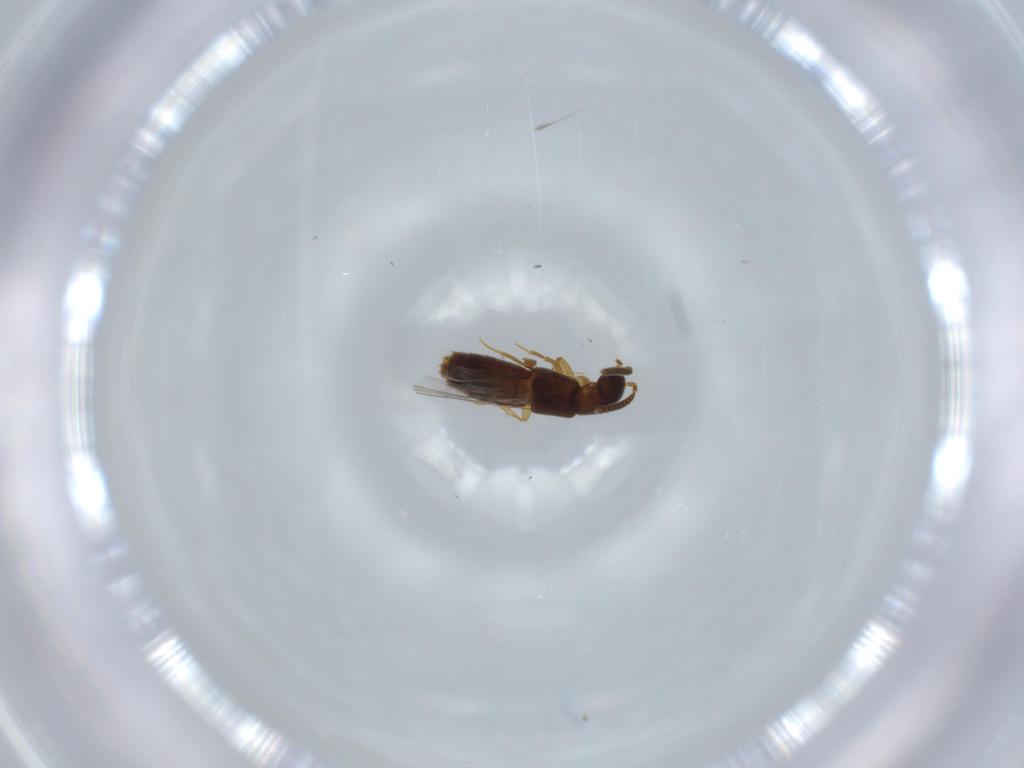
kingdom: Animalia
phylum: Arthropoda
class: Insecta
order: Coleoptera
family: Staphylinidae
